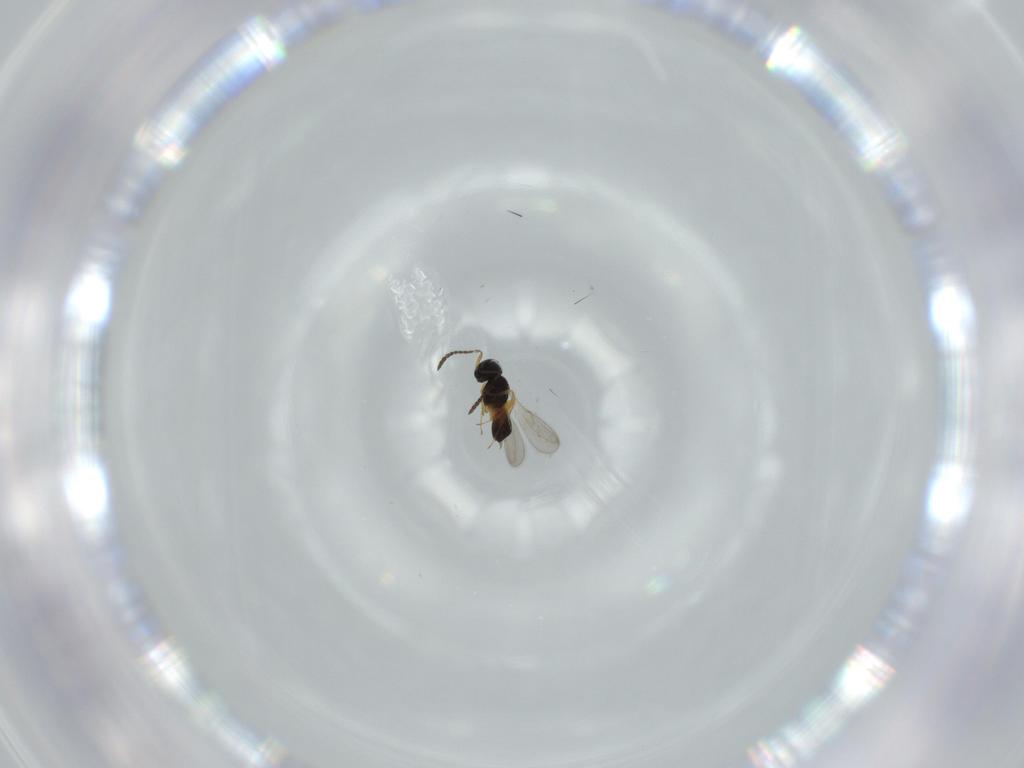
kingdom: Animalia
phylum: Arthropoda
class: Insecta
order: Hymenoptera
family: Scelionidae
